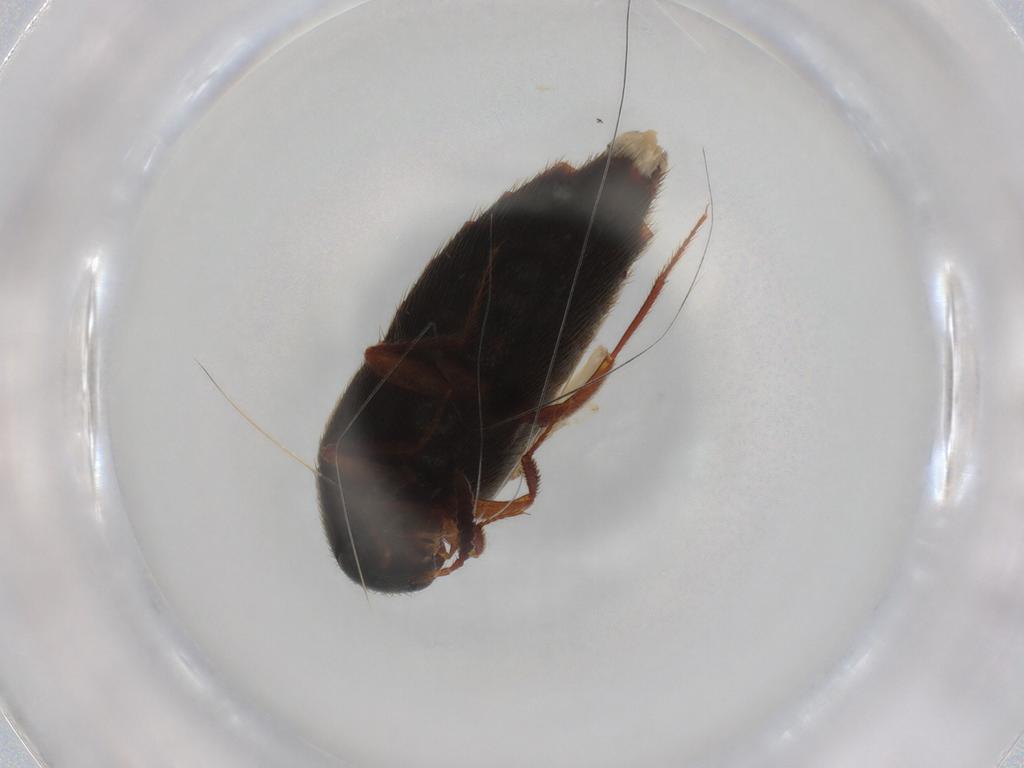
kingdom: Animalia
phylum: Arthropoda
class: Insecta
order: Coleoptera
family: Staphylinidae
